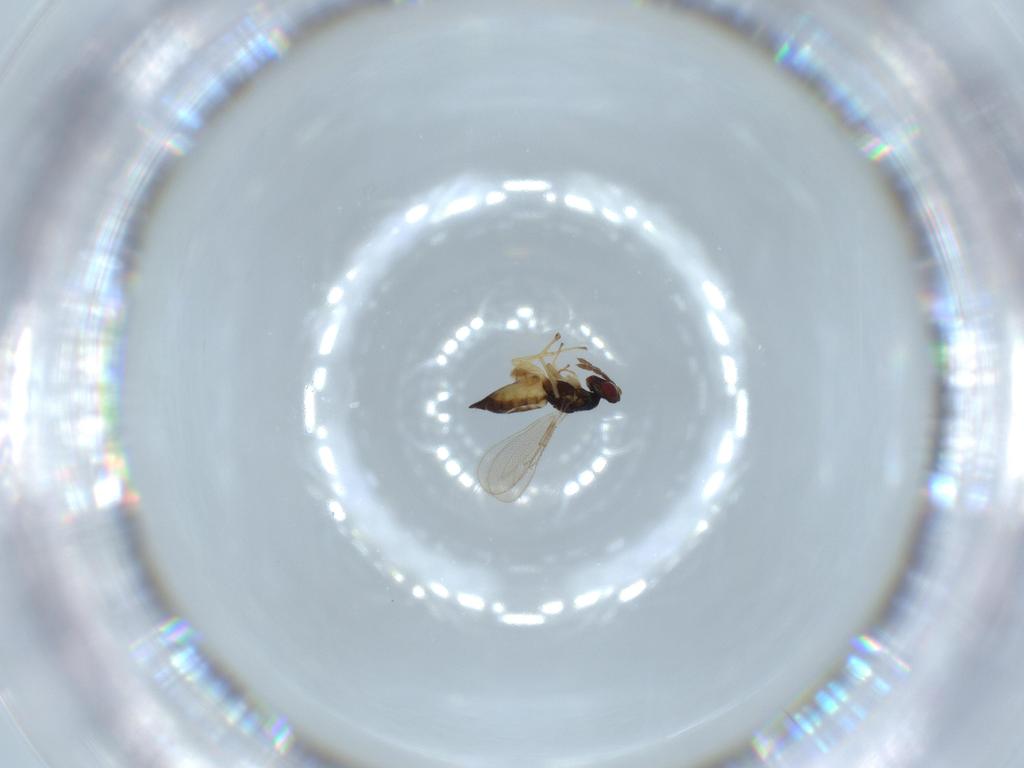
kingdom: Animalia
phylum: Arthropoda
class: Insecta
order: Hymenoptera
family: Eulophidae
